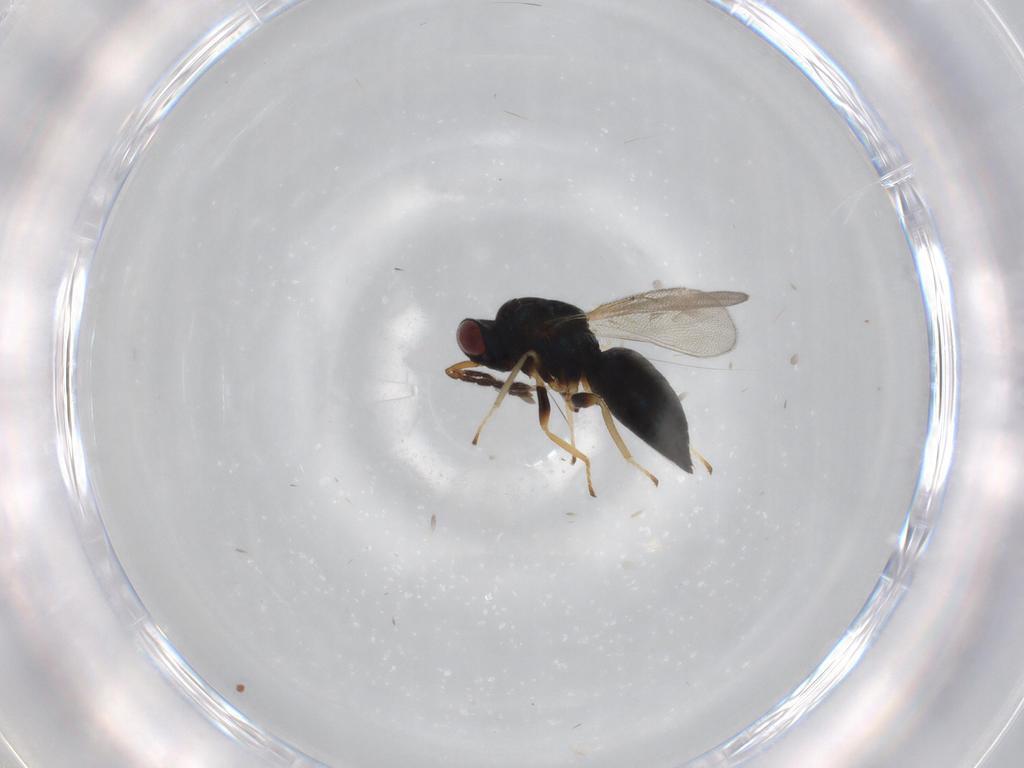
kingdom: Animalia
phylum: Arthropoda
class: Insecta
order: Hymenoptera
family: Eulophidae
